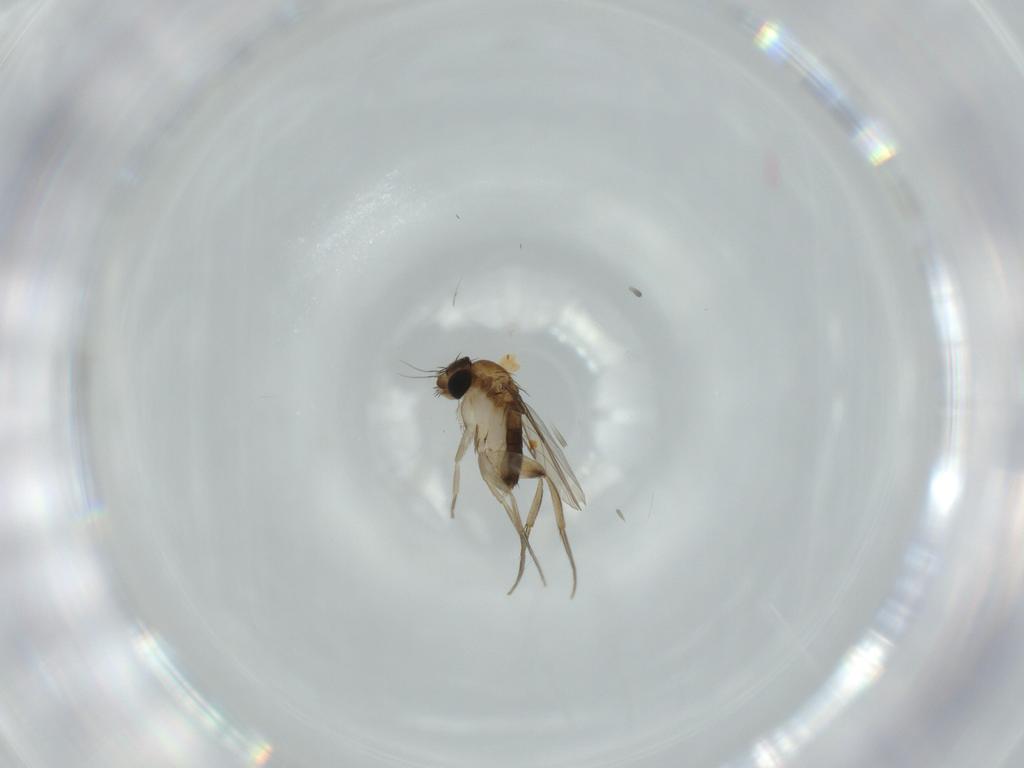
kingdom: Animalia
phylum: Arthropoda
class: Insecta
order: Diptera
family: Phoridae
